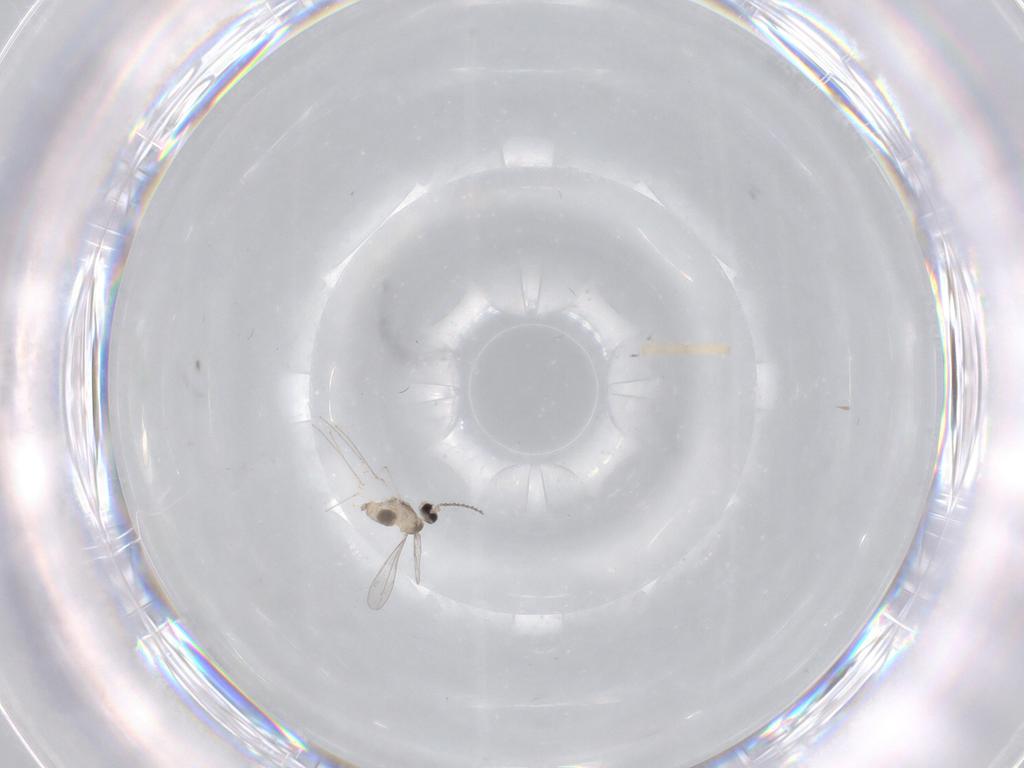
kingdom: Animalia
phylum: Arthropoda
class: Insecta
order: Diptera
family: Cecidomyiidae
